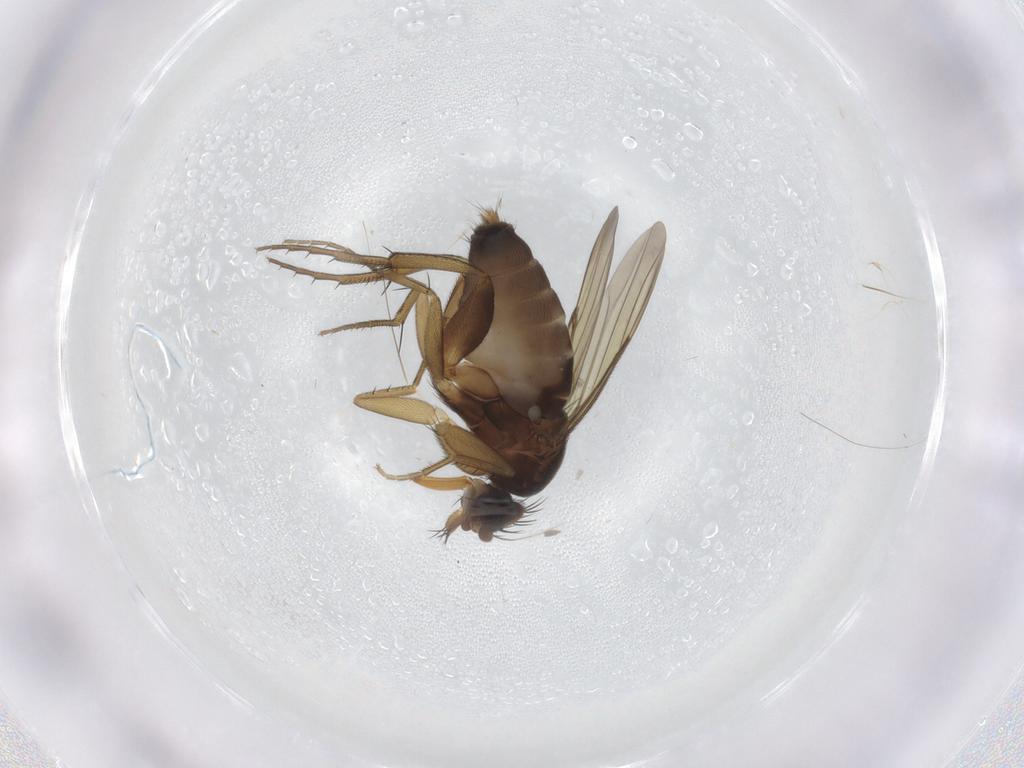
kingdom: Animalia
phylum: Arthropoda
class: Insecta
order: Diptera
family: Phoridae
